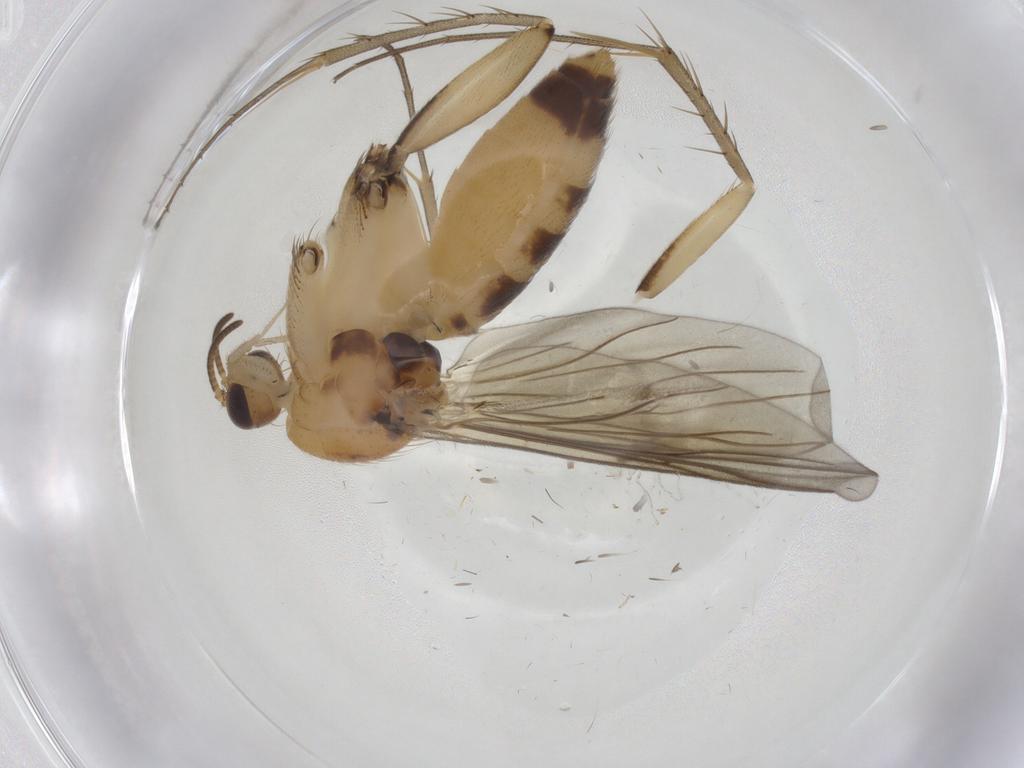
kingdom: Animalia
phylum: Arthropoda
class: Insecta
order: Diptera
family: Mycetophilidae
